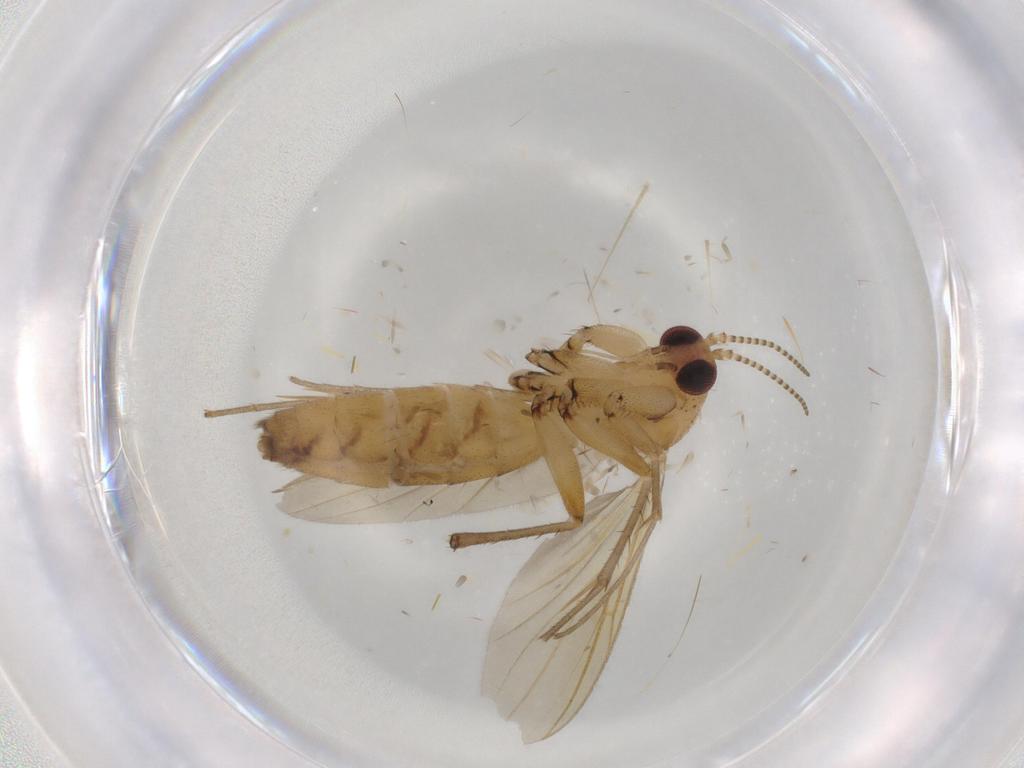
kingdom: Animalia
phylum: Arthropoda
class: Insecta
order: Diptera
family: Mycetophilidae
